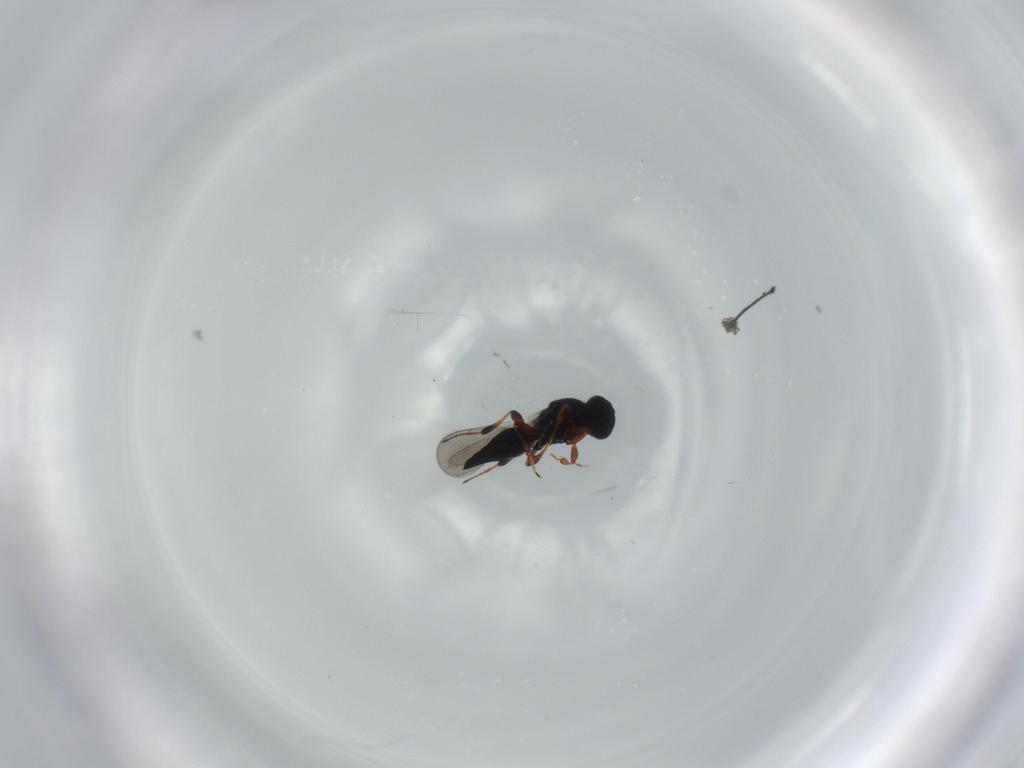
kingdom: Animalia
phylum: Arthropoda
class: Insecta
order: Hymenoptera
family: Platygastridae
